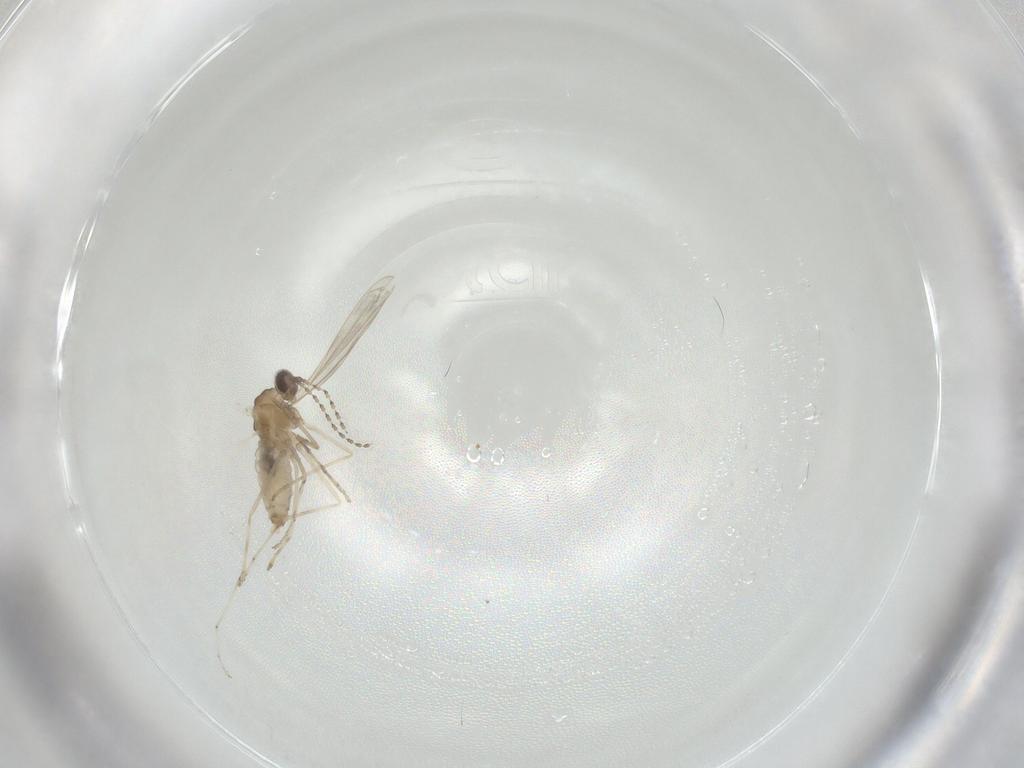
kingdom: Animalia
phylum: Arthropoda
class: Insecta
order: Diptera
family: Cecidomyiidae
